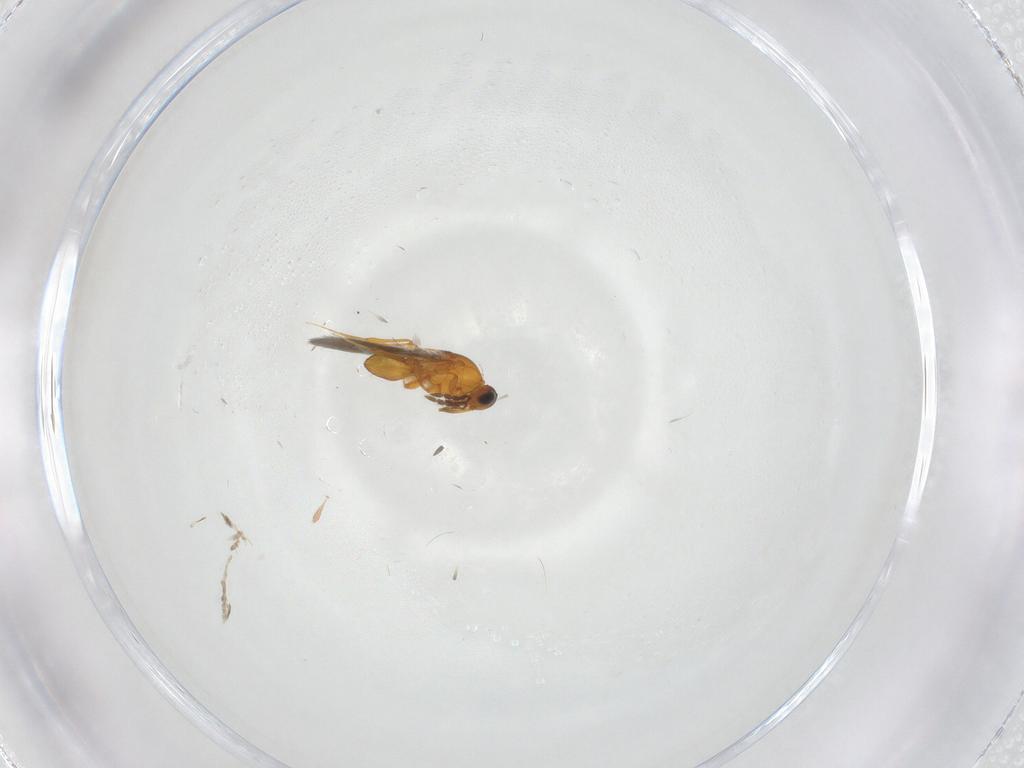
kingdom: Animalia
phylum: Arthropoda
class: Insecta
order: Hymenoptera
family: Platygastridae
